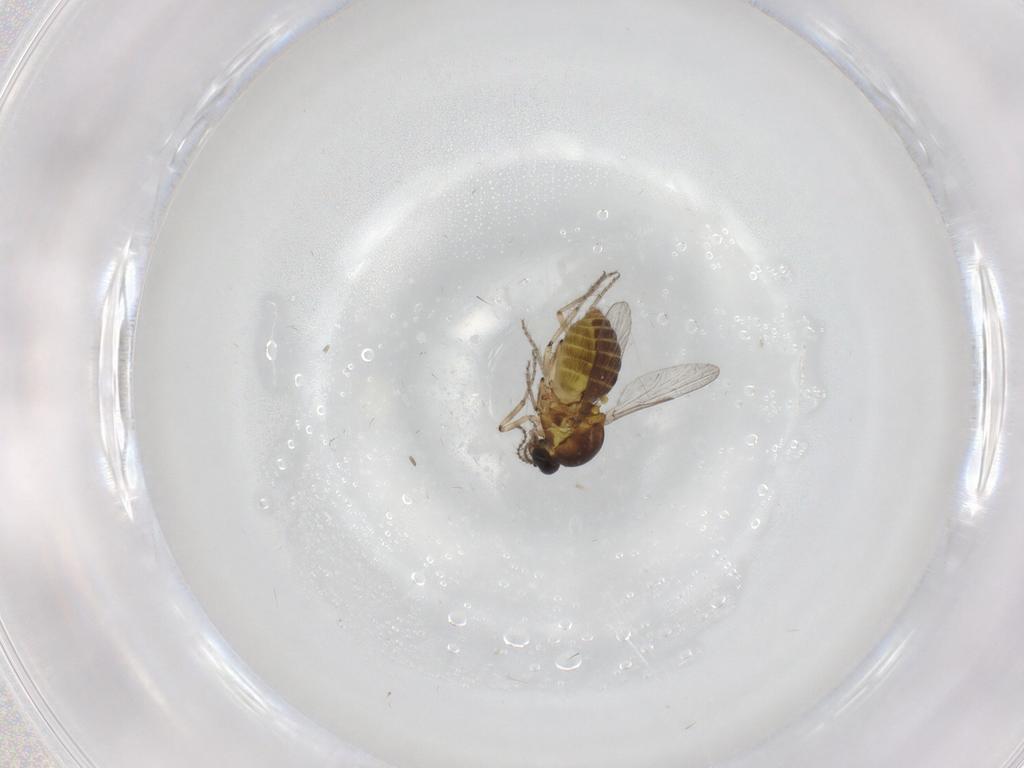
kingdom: Animalia
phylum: Arthropoda
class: Insecta
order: Diptera
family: Ceratopogonidae
